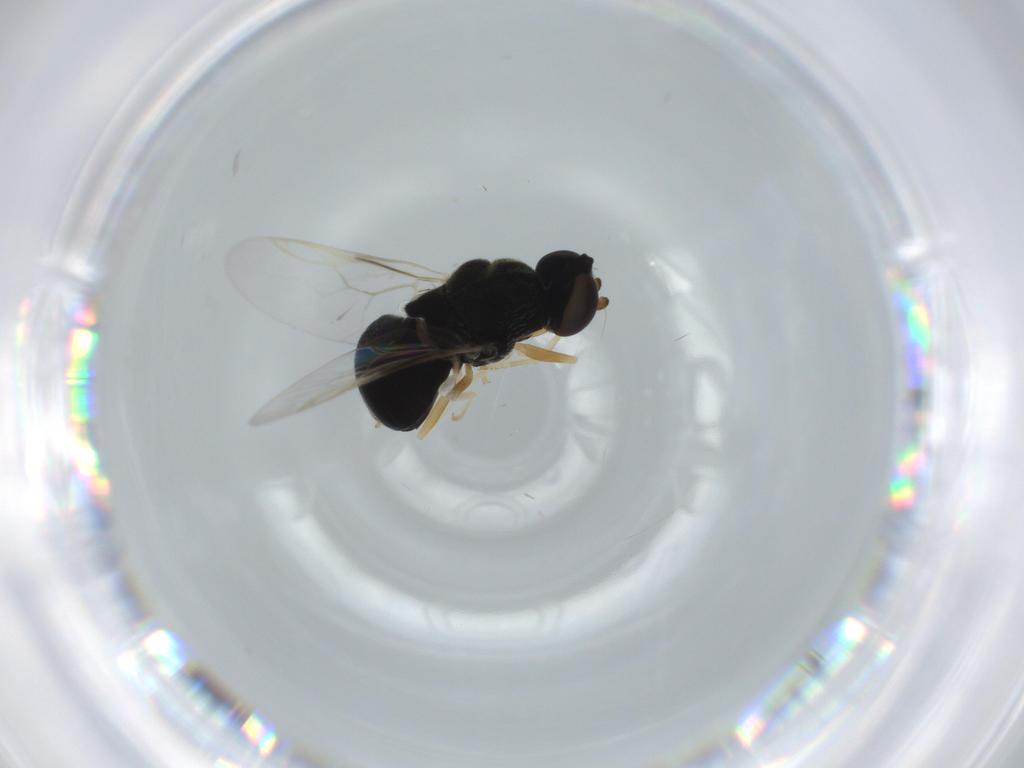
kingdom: Animalia
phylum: Arthropoda
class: Insecta
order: Diptera
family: Stratiomyidae
